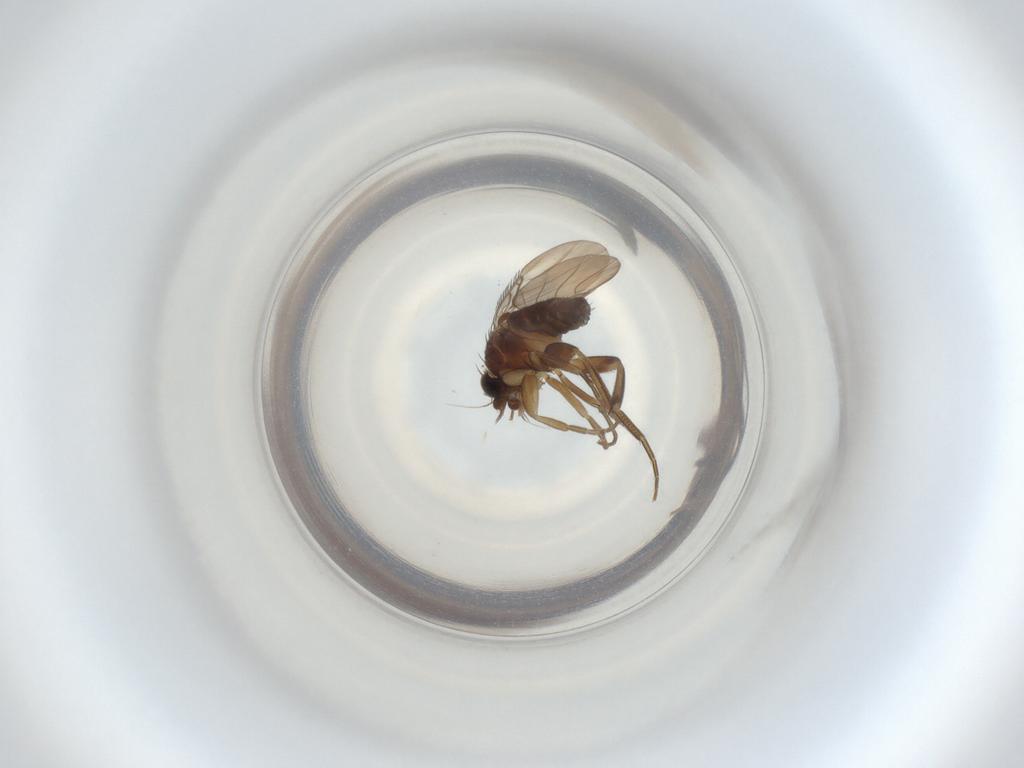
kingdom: Animalia
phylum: Arthropoda
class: Insecta
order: Diptera
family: Phoridae
